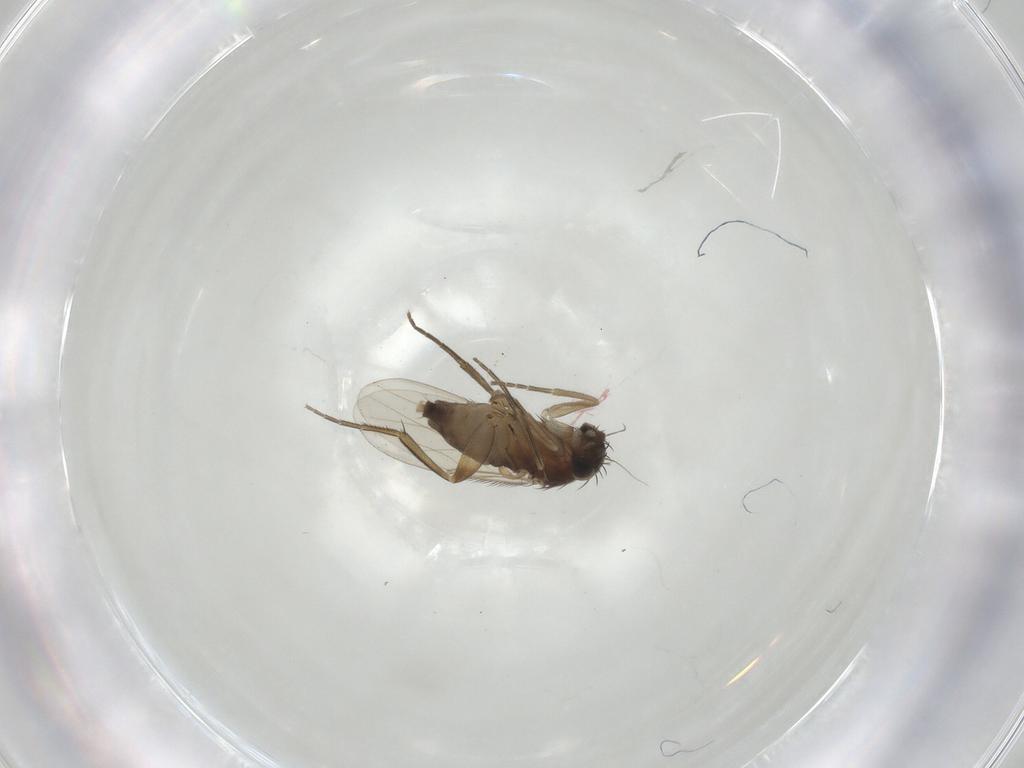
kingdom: Animalia
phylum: Arthropoda
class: Insecta
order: Diptera
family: Phoridae
